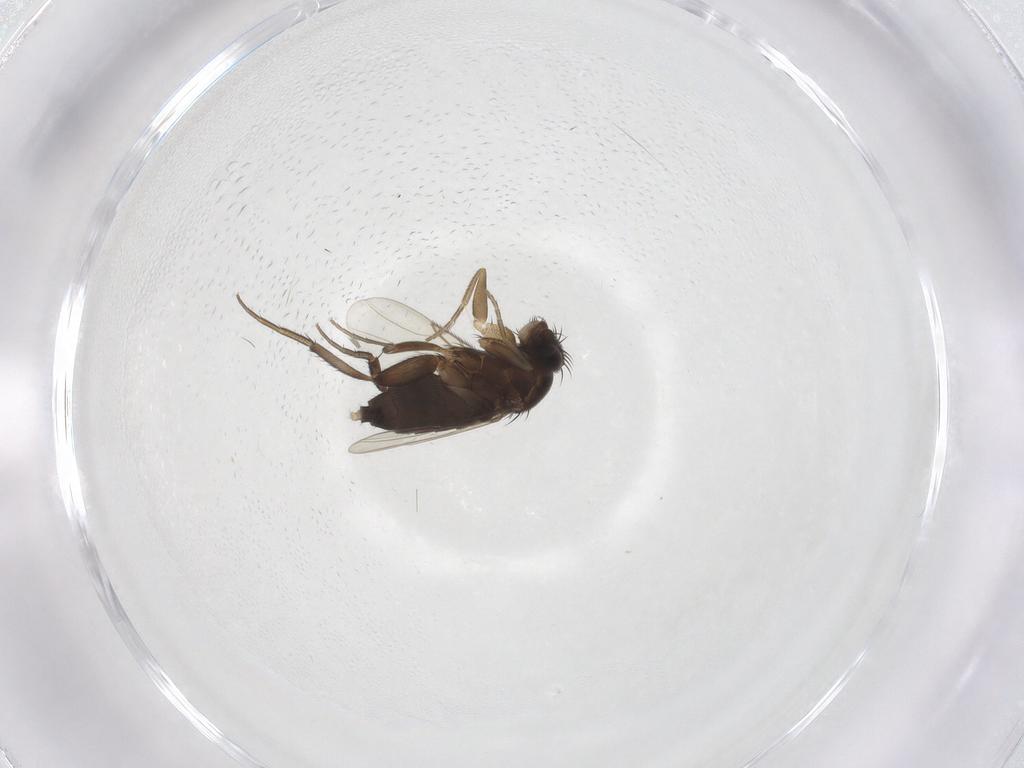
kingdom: Animalia
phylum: Arthropoda
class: Insecta
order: Diptera
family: Phoridae
